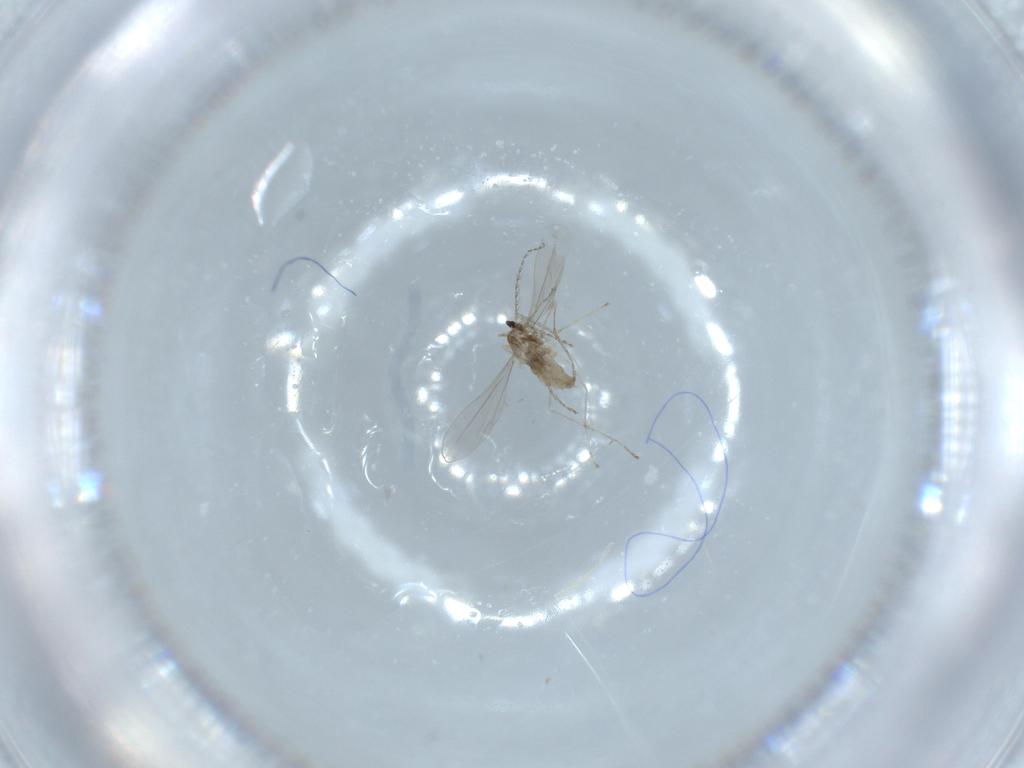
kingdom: Animalia
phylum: Arthropoda
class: Insecta
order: Diptera
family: Cecidomyiidae
